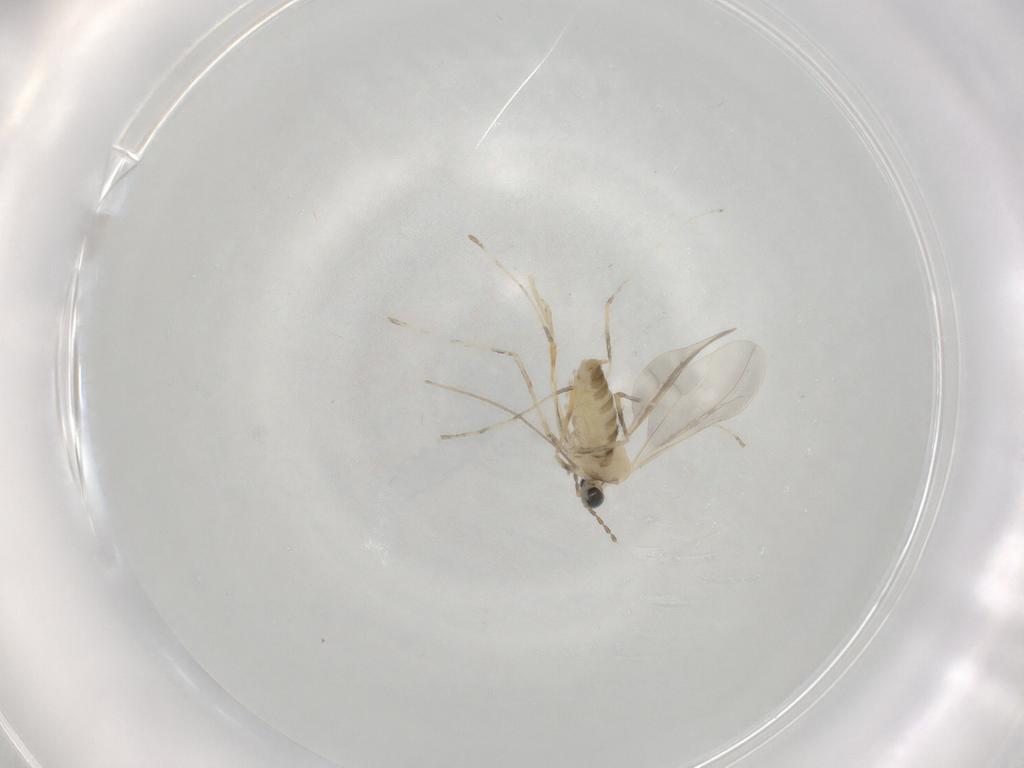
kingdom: Animalia
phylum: Arthropoda
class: Insecta
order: Diptera
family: Cecidomyiidae
